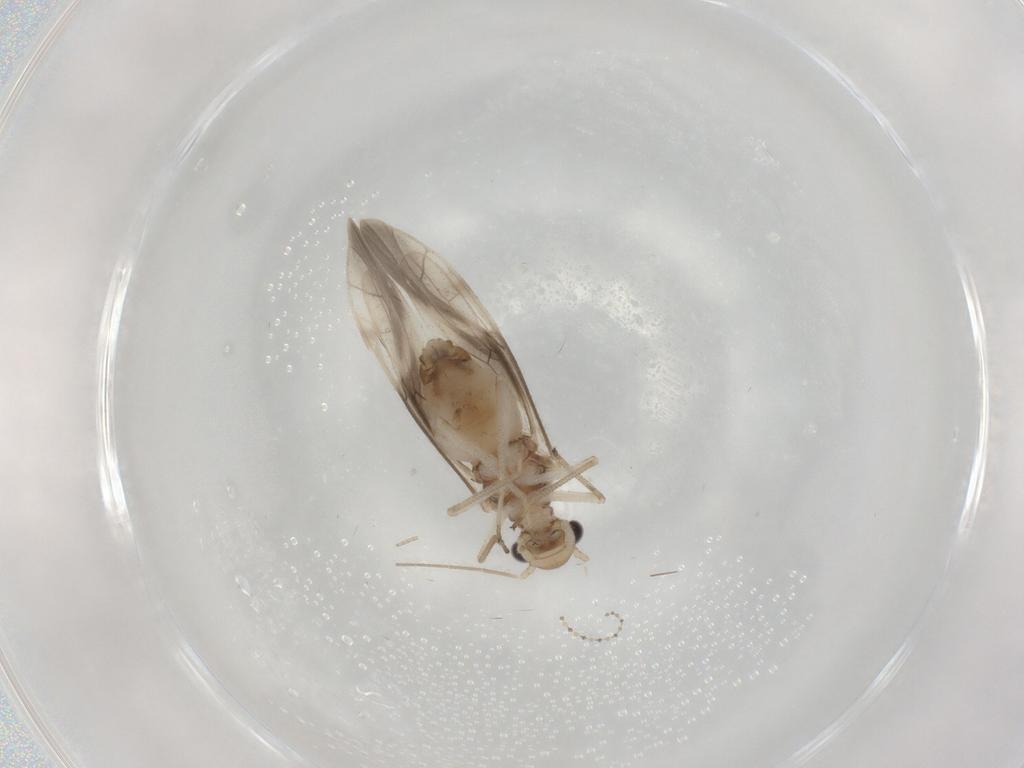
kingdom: Animalia
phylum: Arthropoda
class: Insecta
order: Psocodea
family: Caeciliusidae
